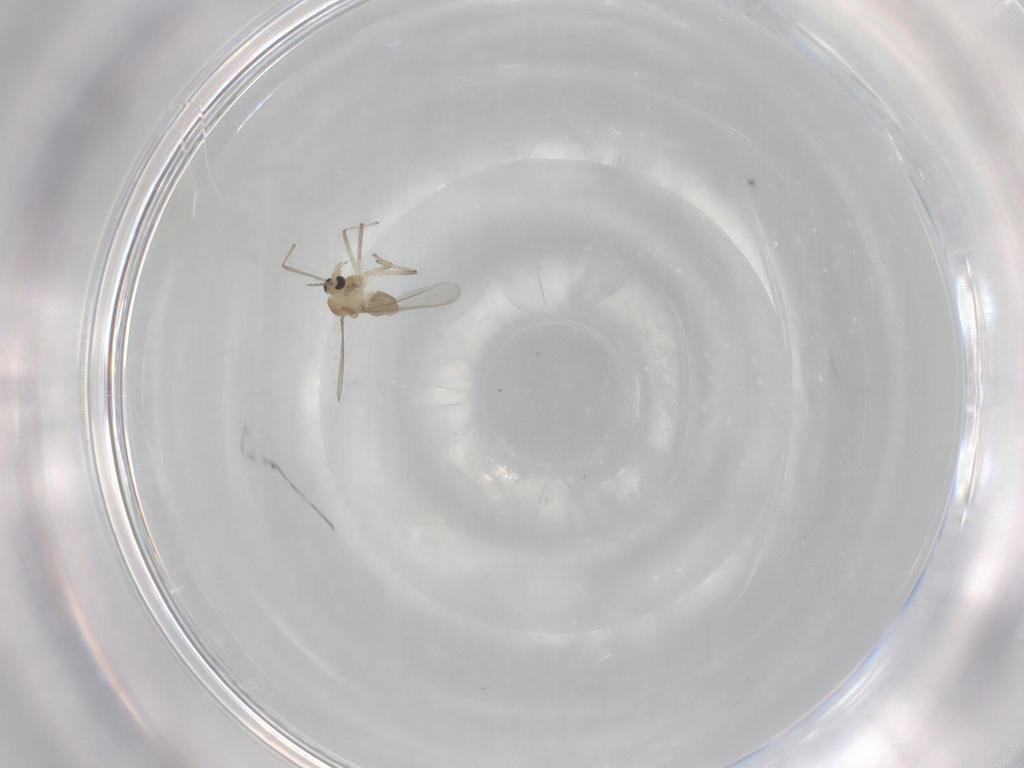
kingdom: Animalia
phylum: Arthropoda
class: Insecta
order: Diptera
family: Chironomidae
